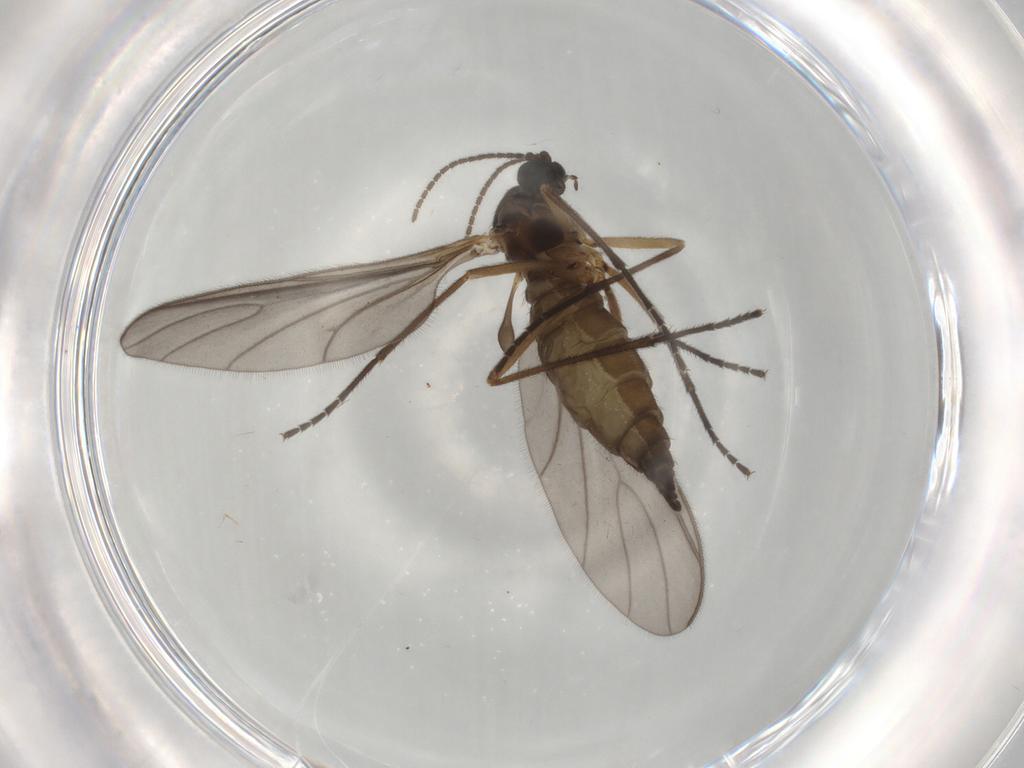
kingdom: Animalia
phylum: Arthropoda
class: Insecta
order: Diptera
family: Sciaridae
